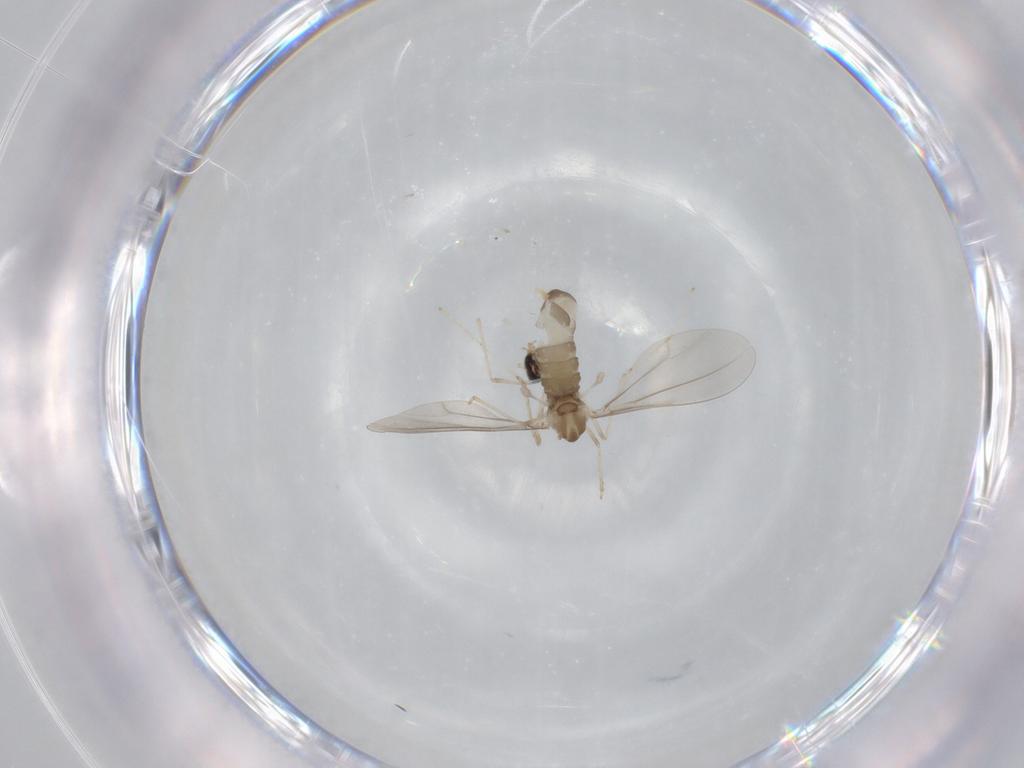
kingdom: Animalia
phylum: Arthropoda
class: Insecta
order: Diptera
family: Cecidomyiidae
